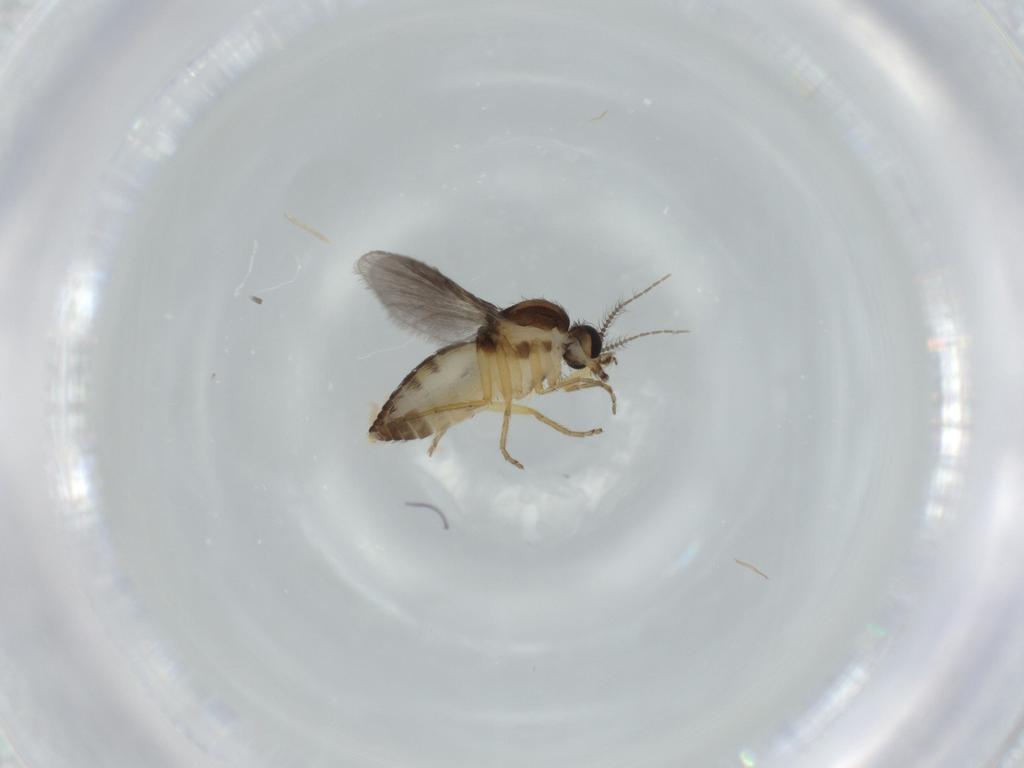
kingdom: Animalia
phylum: Arthropoda
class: Insecta
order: Diptera
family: Ceratopogonidae
